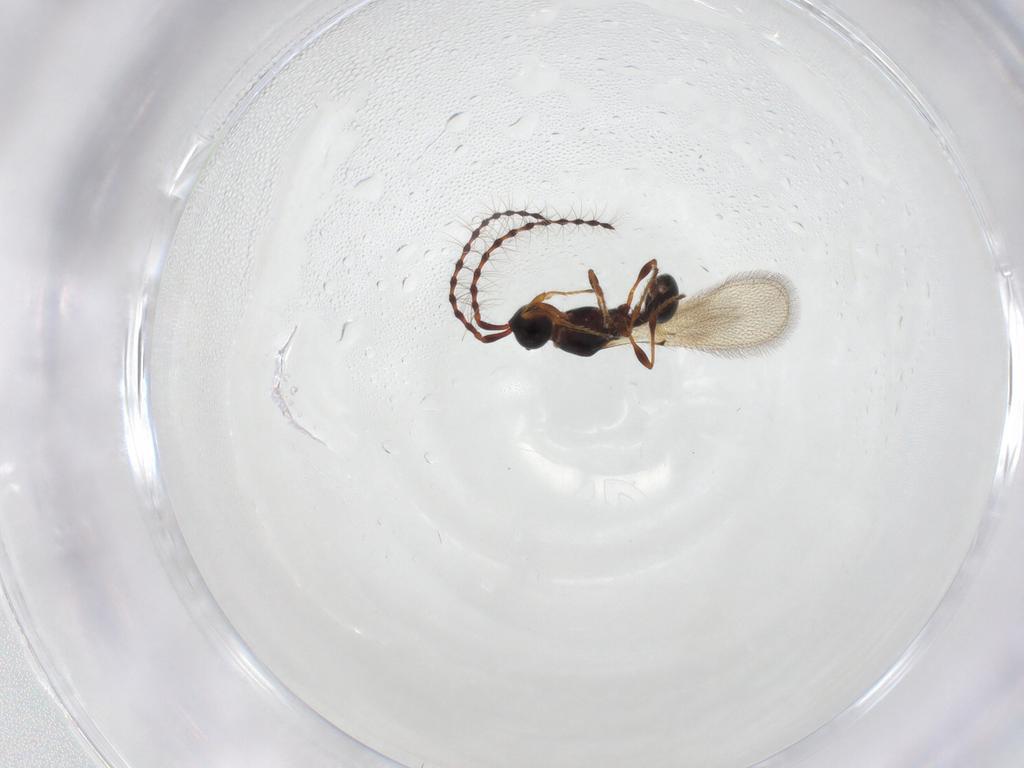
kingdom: Animalia
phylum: Arthropoda
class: Insecta
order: Hymenoptera
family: Diapriidae
